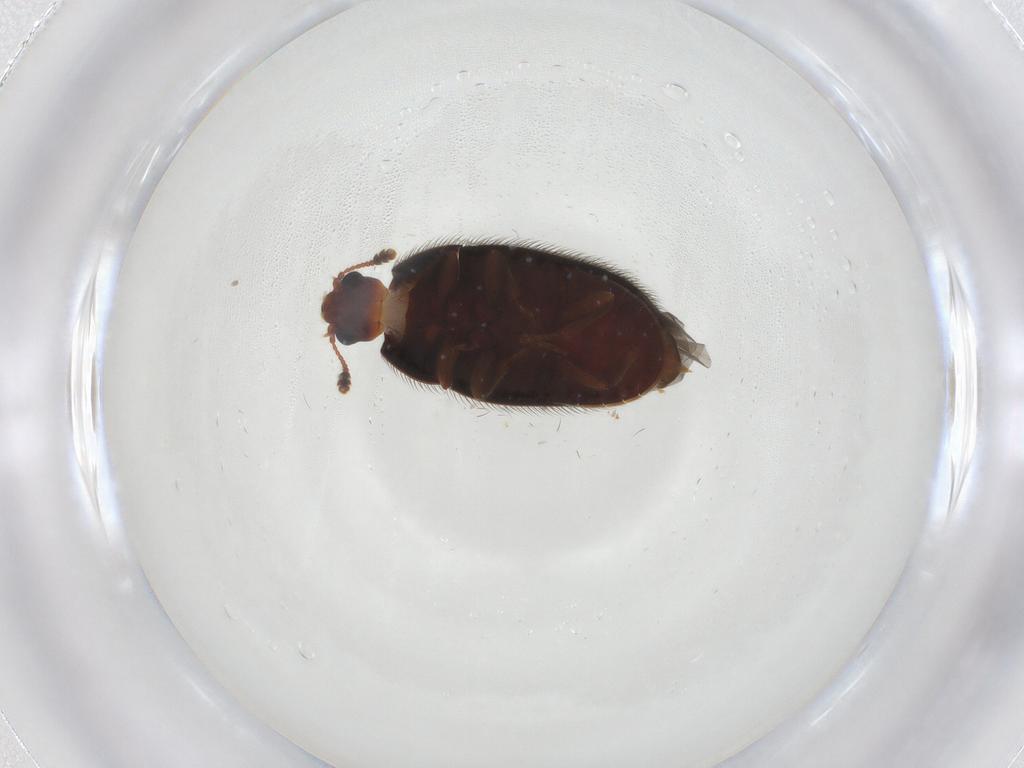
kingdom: Animalia
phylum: Arthropoda
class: Insecta
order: Coleoptera
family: Biphyllidae
